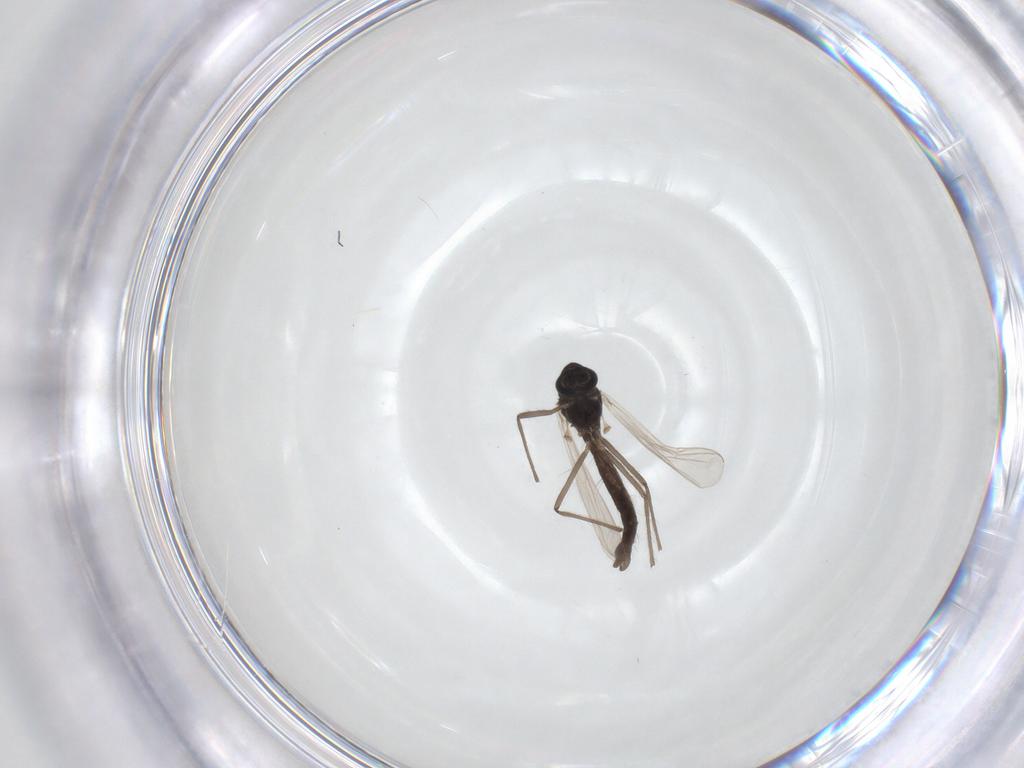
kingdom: Animalia
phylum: Arthropoda
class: Insecta
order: Diptera
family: Chironomidae
